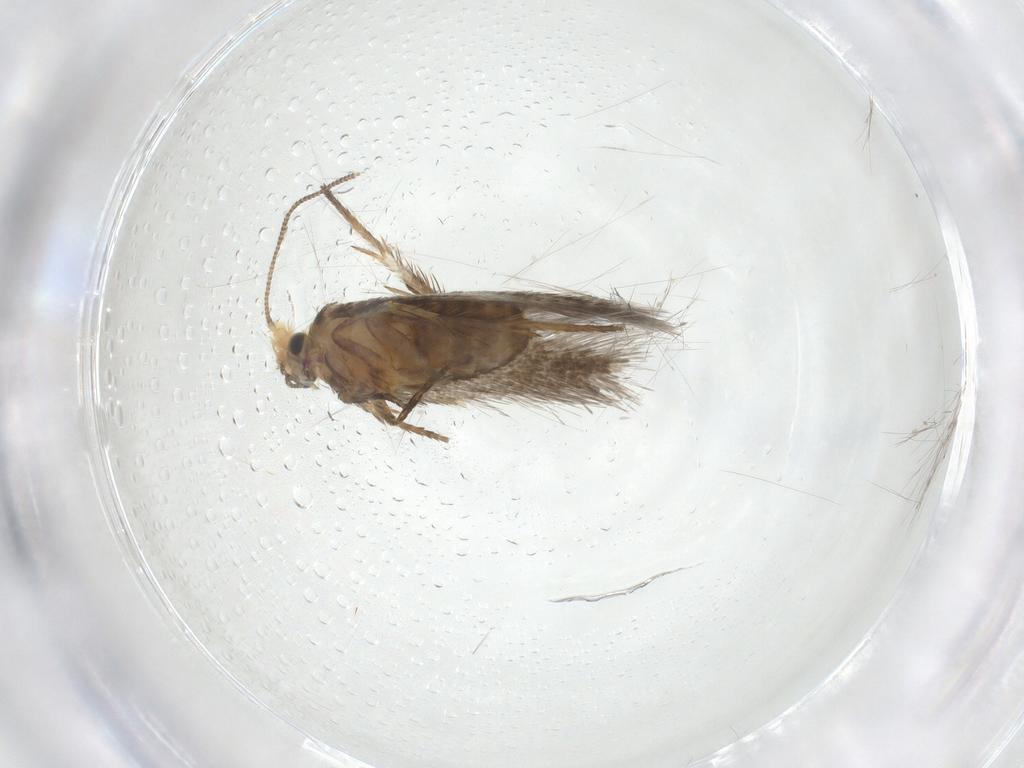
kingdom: Animalia
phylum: Arthropoda
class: Insecta
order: Lepidoptera
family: Nepticulidae
